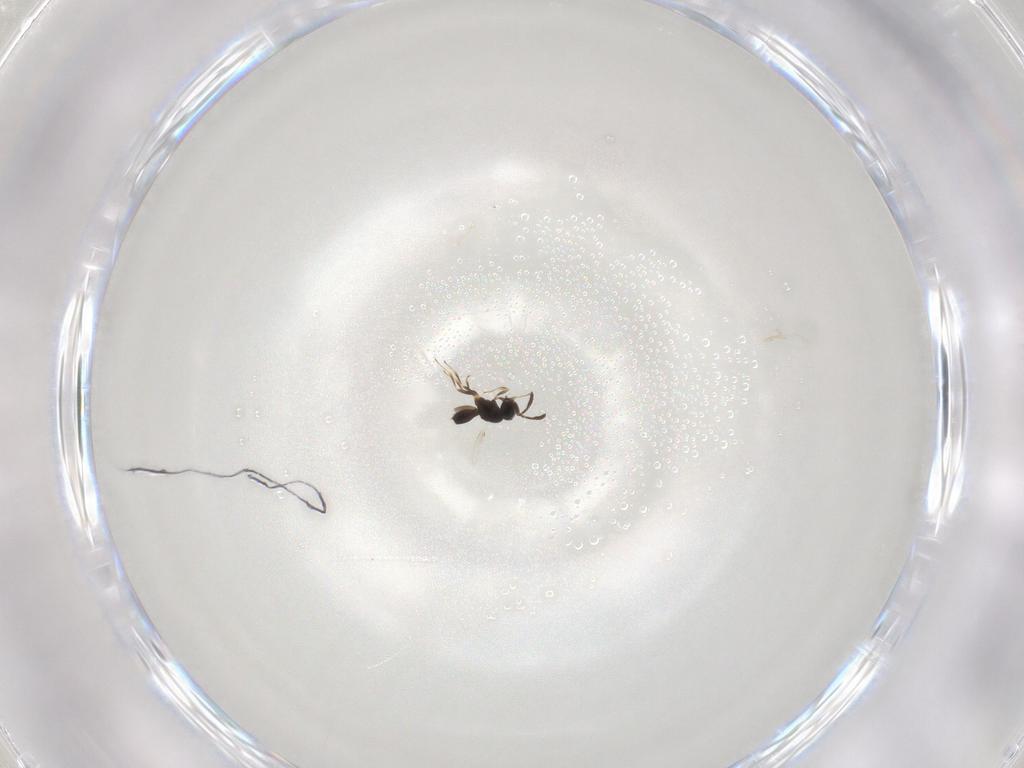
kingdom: Animalia
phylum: Arthropoda
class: Insecta
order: Hymenoptera
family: Scelionidae
